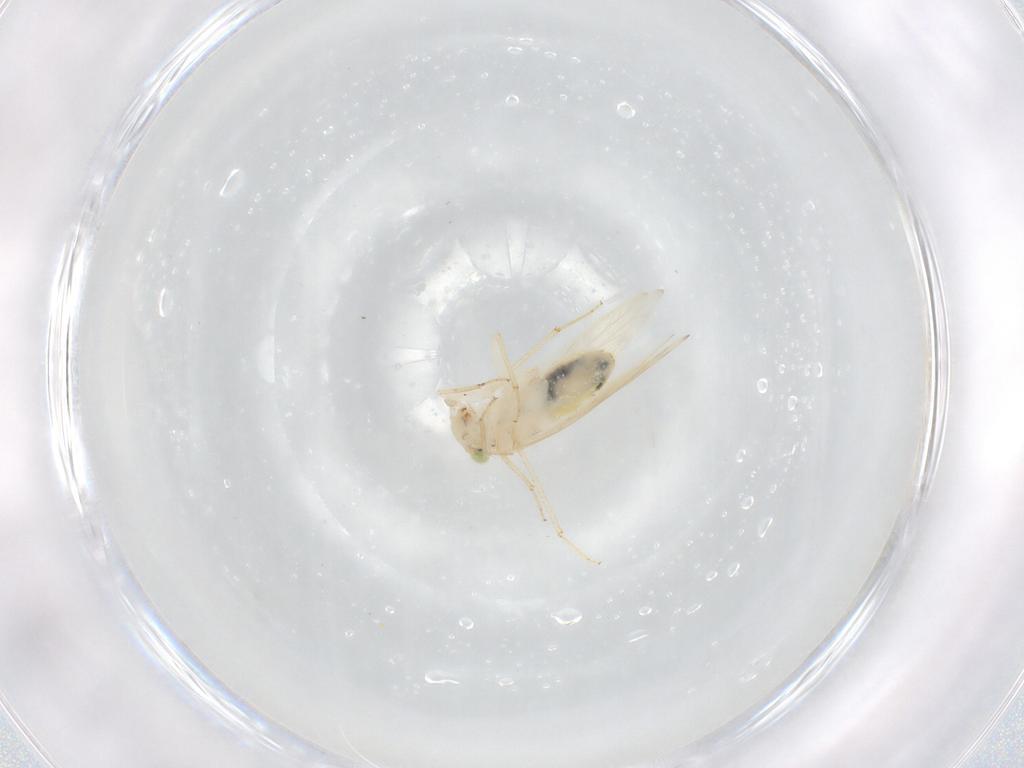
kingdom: Animalia
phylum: Arthropoda
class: Insecta
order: Psocodea
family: Lepidopsocidae
